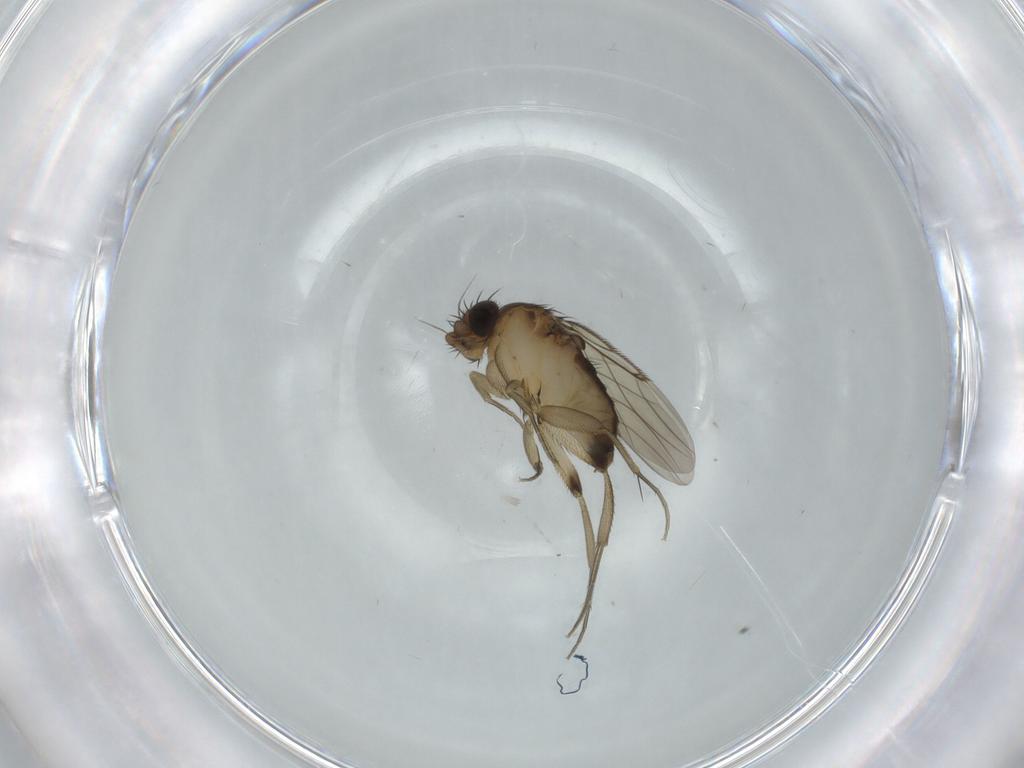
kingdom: Animalia
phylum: Arthropoda
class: Insecta
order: Diptera
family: Phoridae
